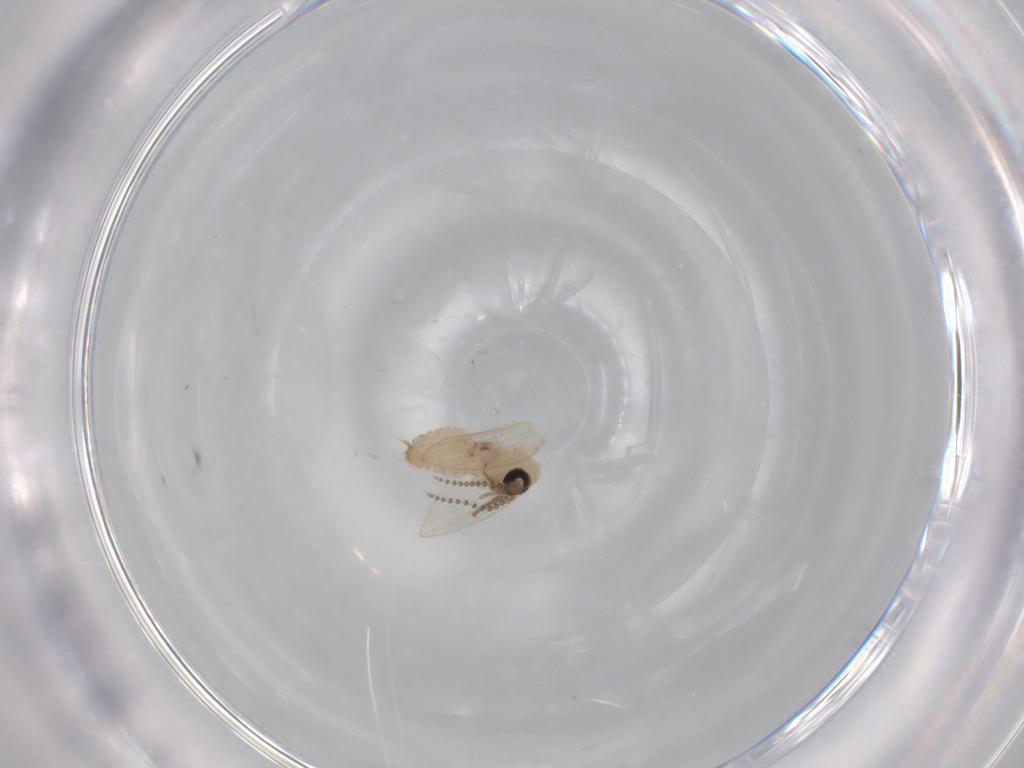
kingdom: Animalia
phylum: Arthropoda
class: Insecta
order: Diptera
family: Psychodidae
